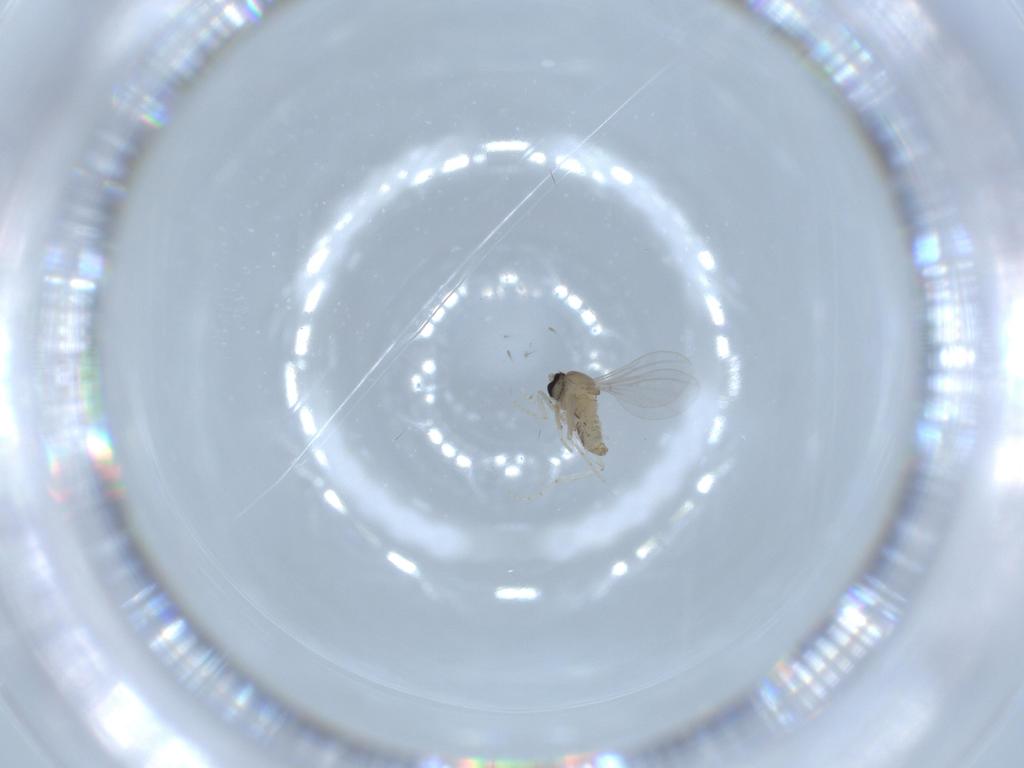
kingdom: Animalia
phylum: Arthropoda
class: Insecta
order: Diptera
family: Cecidomyiidae
